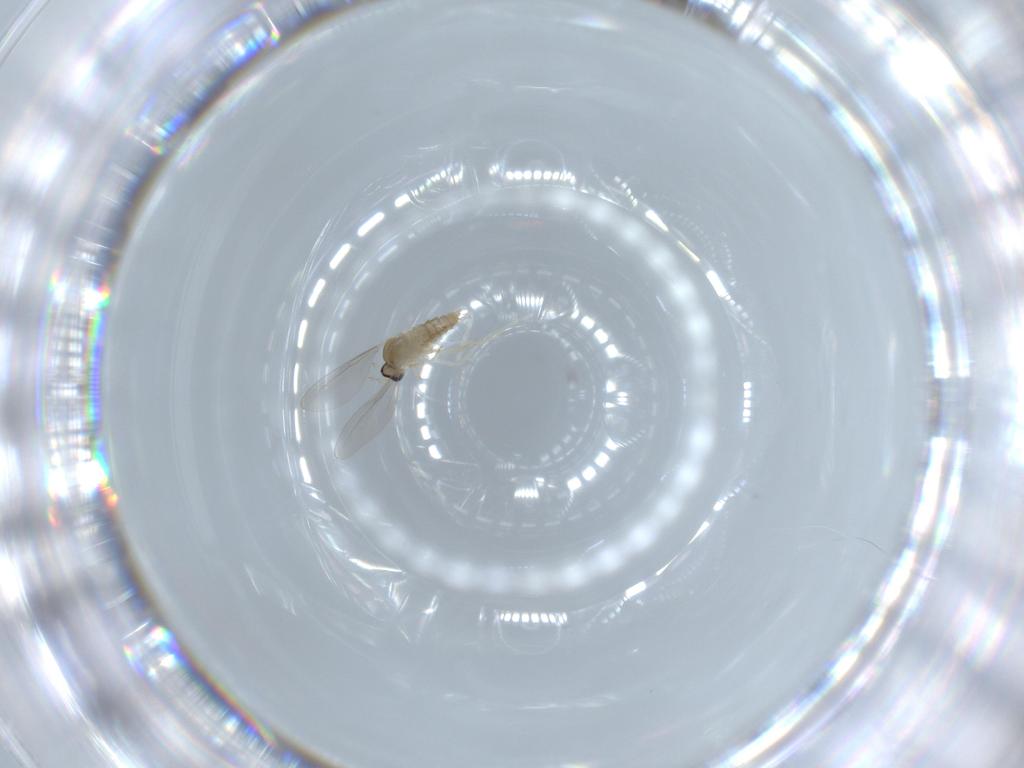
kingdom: Animalia
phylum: Arthropoda
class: Insecta
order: Diptera
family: Cecidomyiidae
